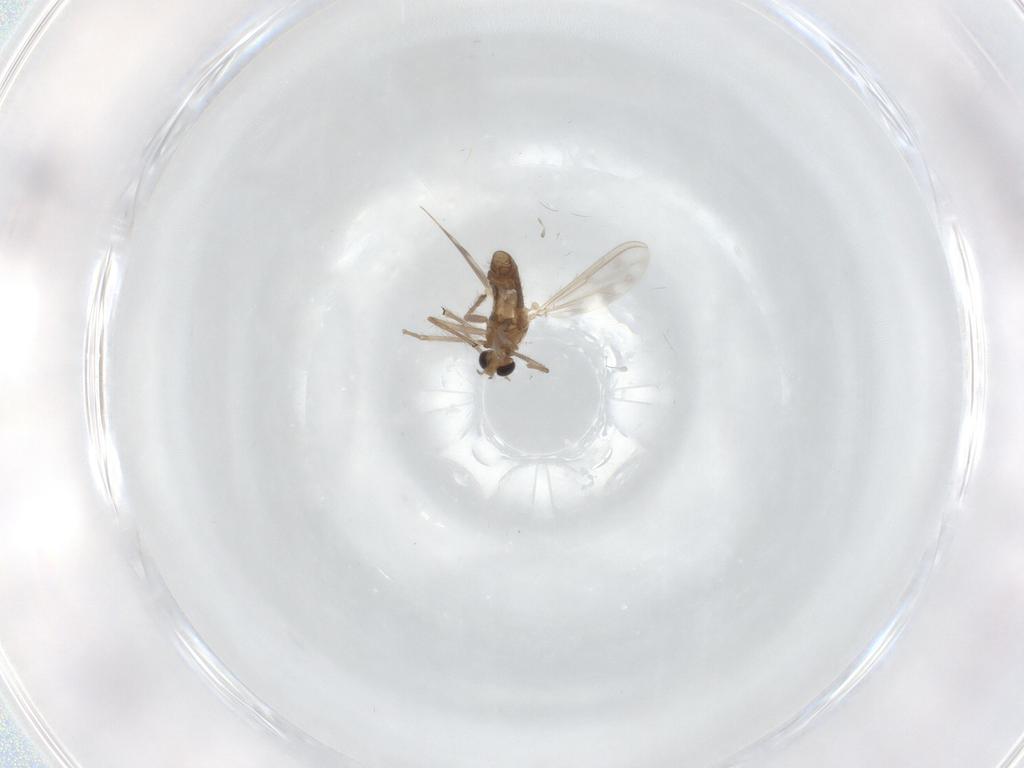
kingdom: Animalia
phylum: Arthropoda
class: Insecta
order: Diptera
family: Chironomidae
